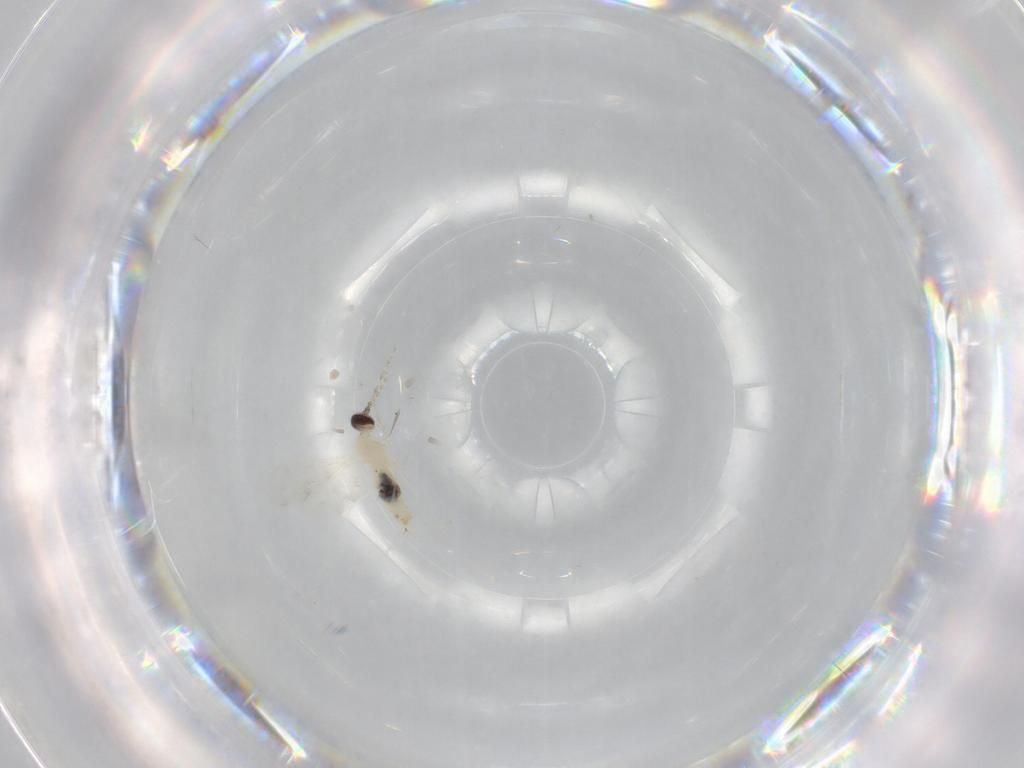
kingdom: Animalia
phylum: Arthropoda
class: Insecta
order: Diptera
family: Cecidomyiidae
